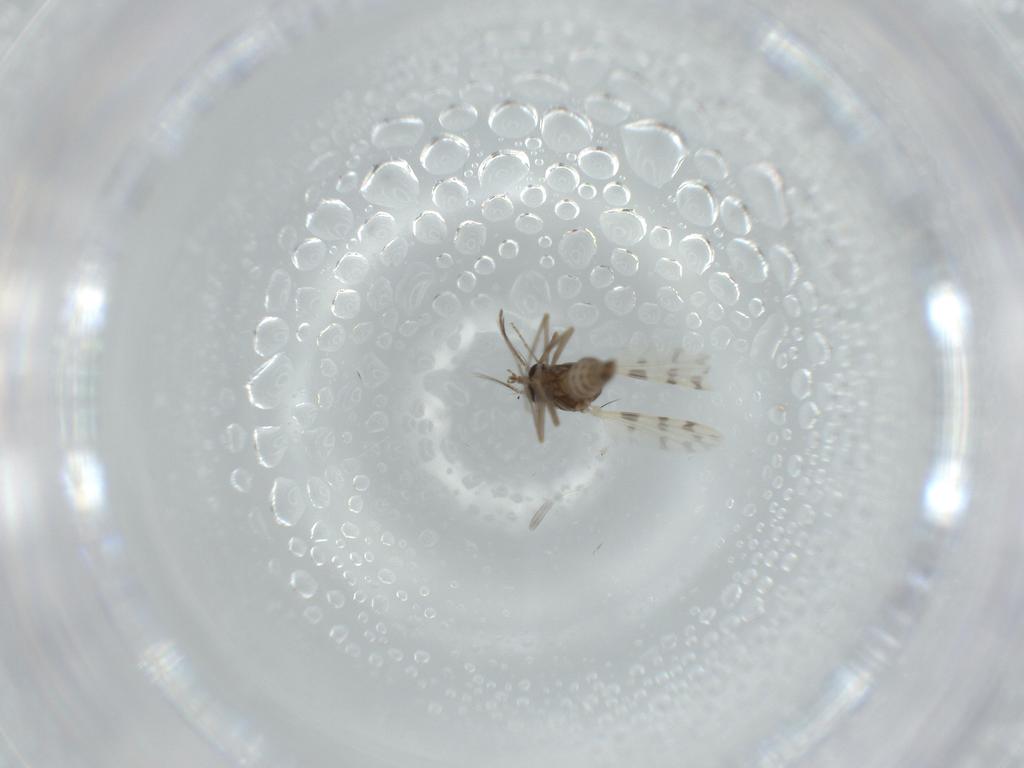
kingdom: Animalia
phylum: Arthropoda
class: Insecta
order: Diptera
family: Ceratopogonidae
